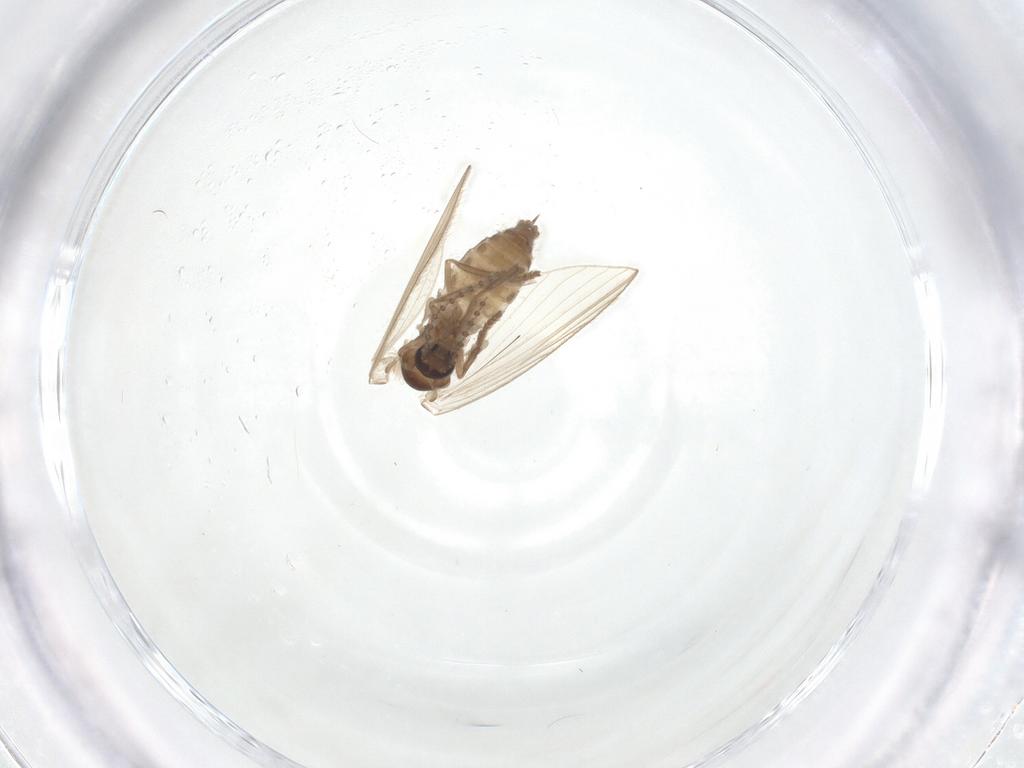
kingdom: Animalia
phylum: Arthropoda
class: Insecta
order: Diptera
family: Psychodidae
